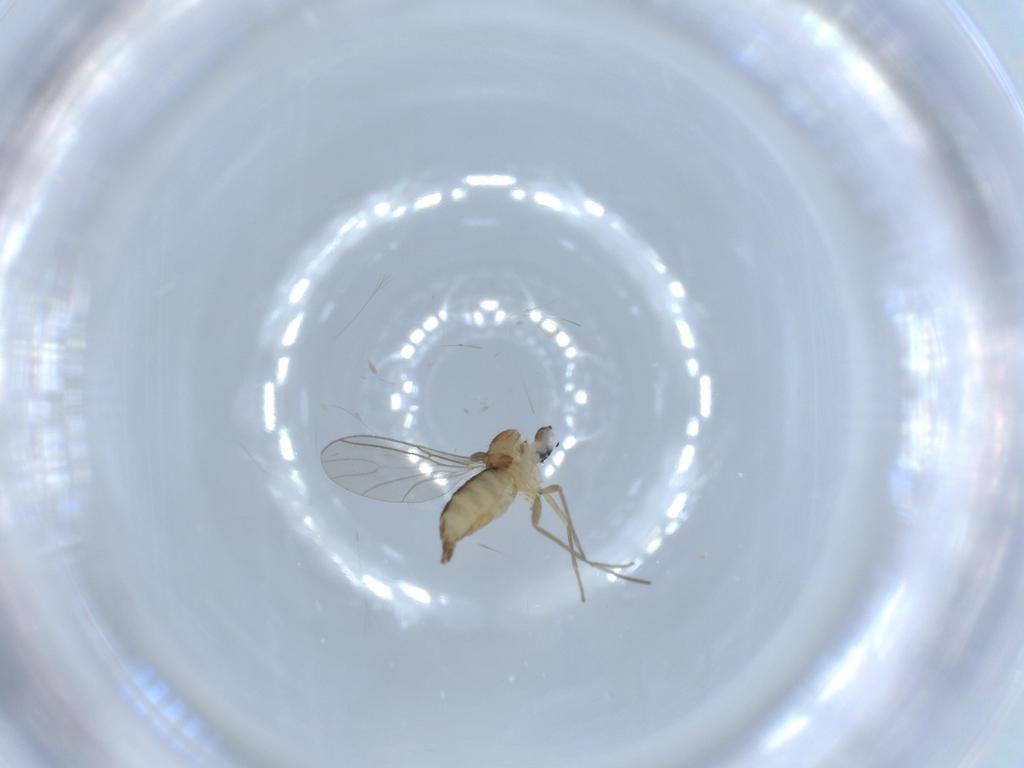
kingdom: Animalia
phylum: Arthropoda
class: Insecta
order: Diptera
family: Sciaridae
